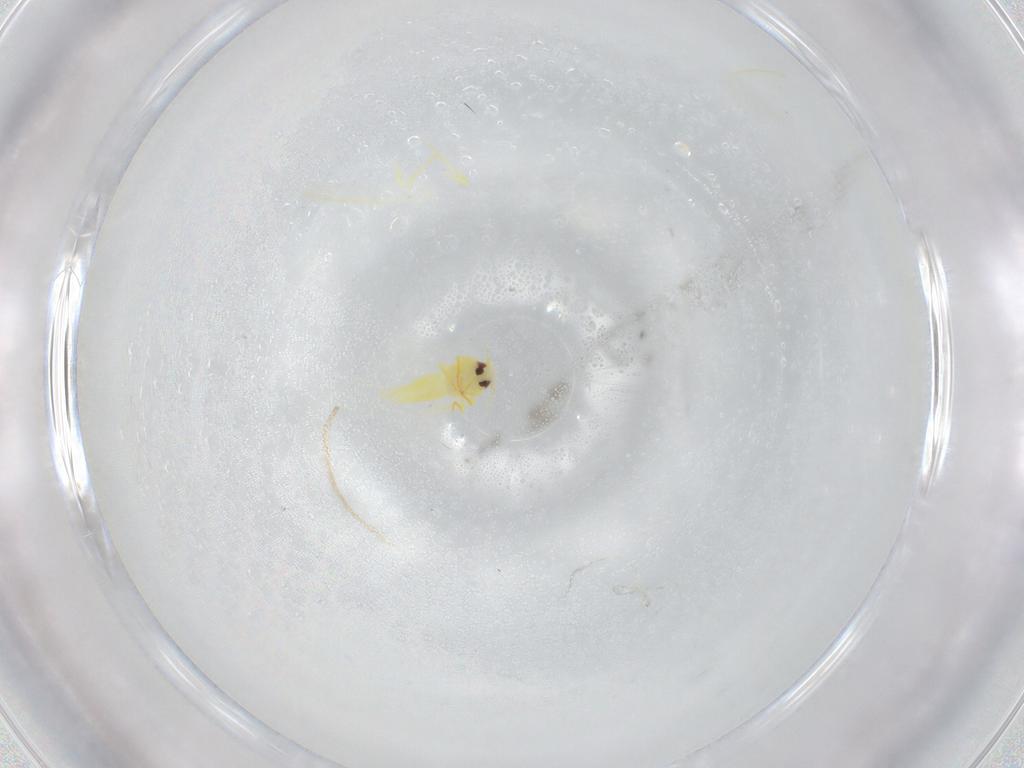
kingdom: Animalia
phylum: Arthropoda
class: Insecta
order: Hemiptera
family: Aleyrodidae
